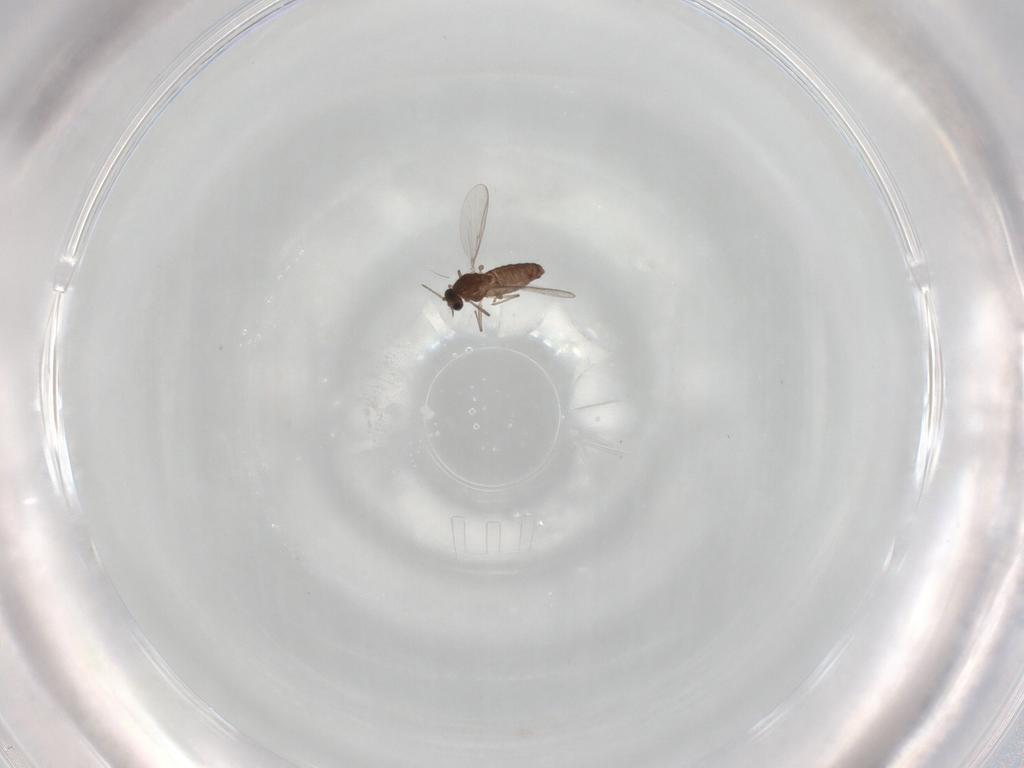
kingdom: Animalia
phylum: Arthropoda
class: Insecta
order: Diptera
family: Chironomidae
